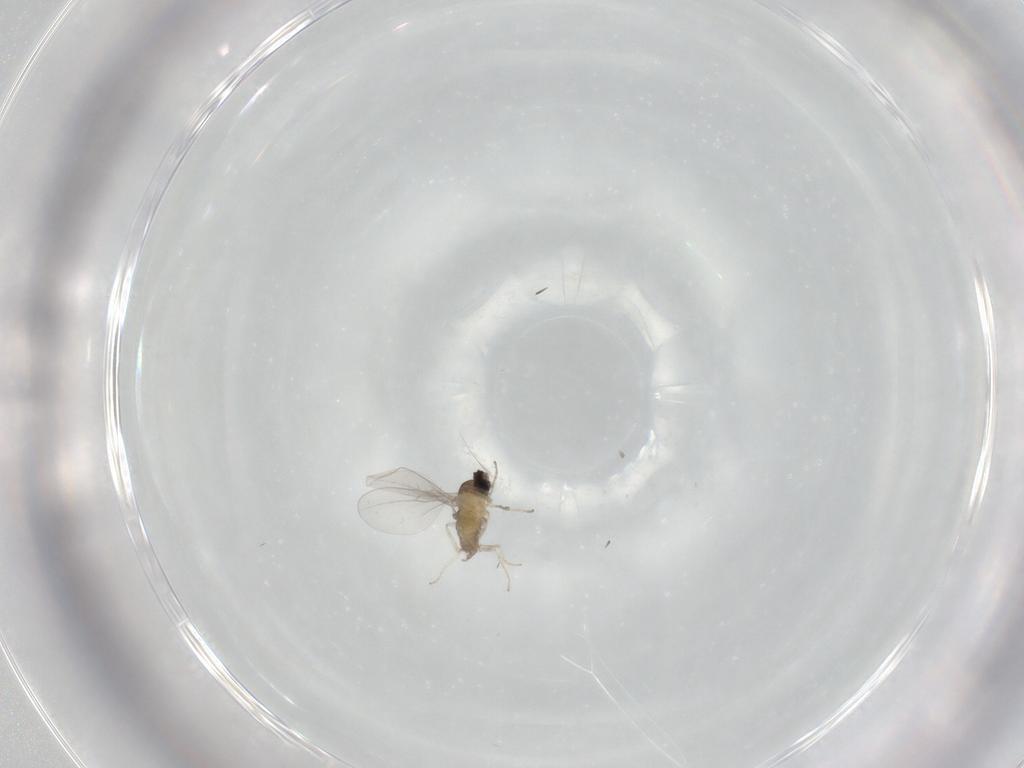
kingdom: Animalia
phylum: Arthropoda
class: Insecta
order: Diptera
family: Cecidomyiidae
